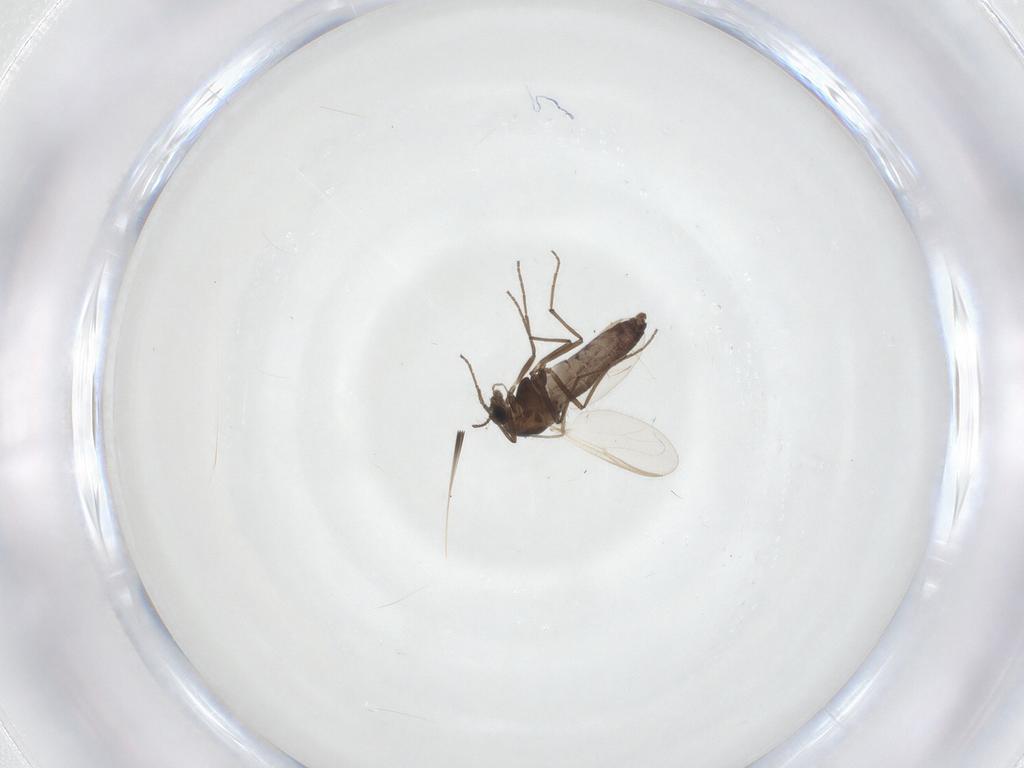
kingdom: Animalia
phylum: Arthropoda
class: Insecta
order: Diptera
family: Chironomidae
